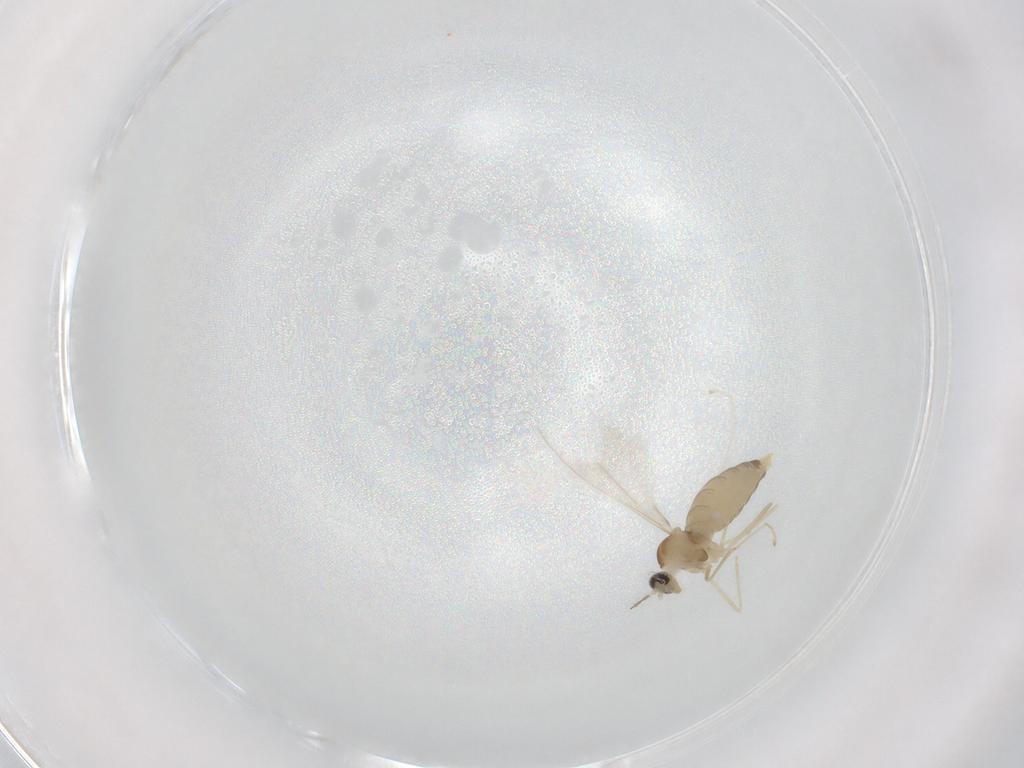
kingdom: Animalia
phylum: Arthropoda
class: Insecta
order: Diptera
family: Cecidomyiidae
